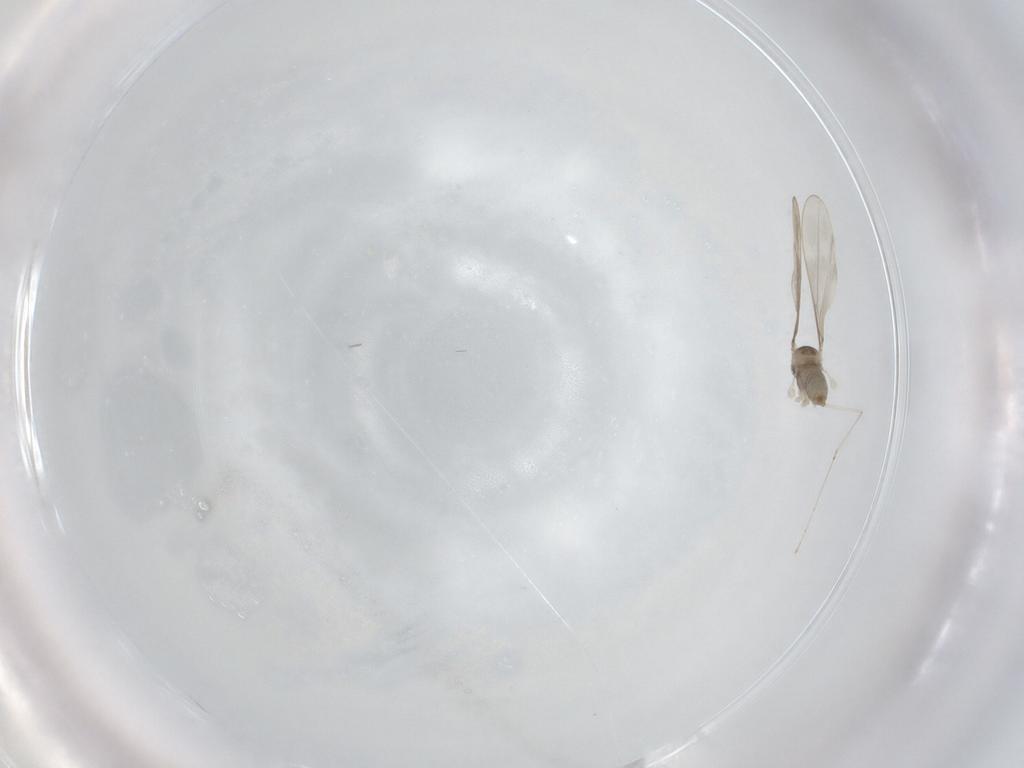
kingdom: Animalia
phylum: Arthropoda
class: Insecta
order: Diptera
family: Cecidomyiidae
